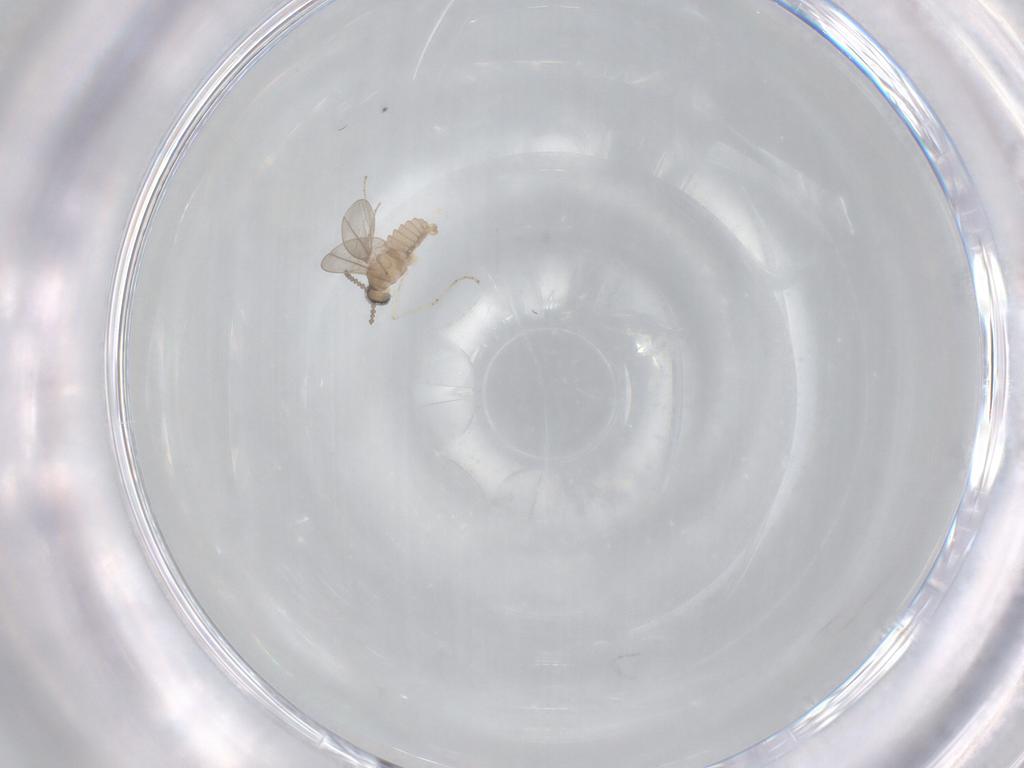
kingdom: Animalia
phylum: Arthropoda
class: Insecta
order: Diptera
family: Cecidomyiidae
